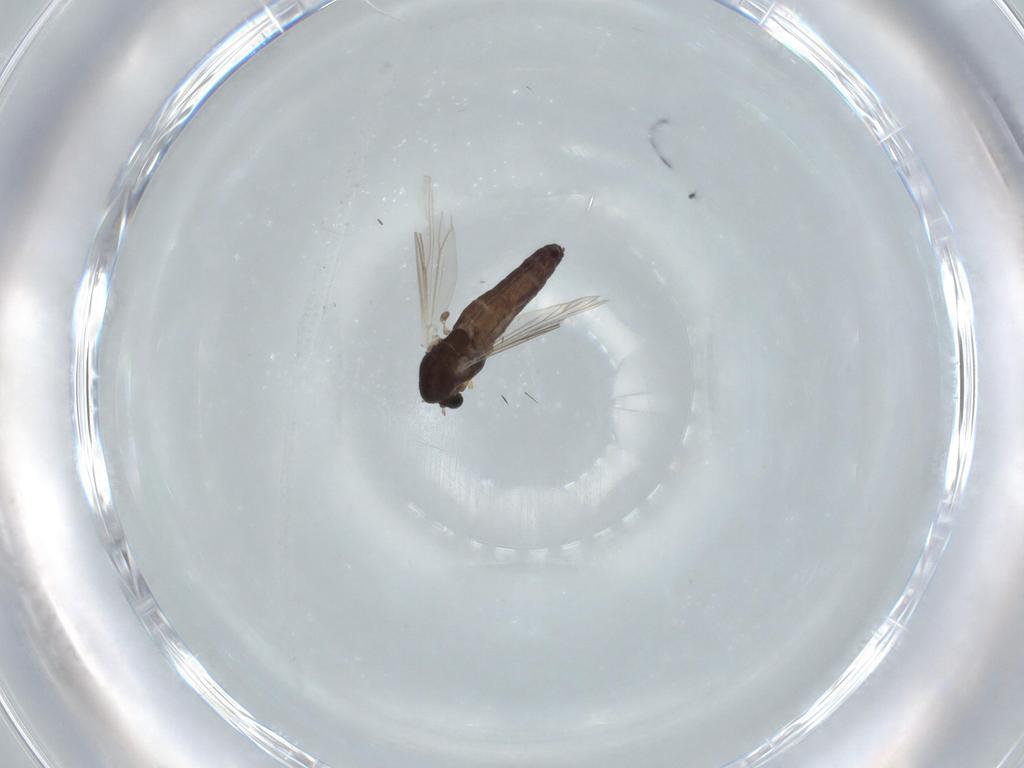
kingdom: Animalia
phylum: Arthropoda
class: Insecta
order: Diptera
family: Chironomidae
